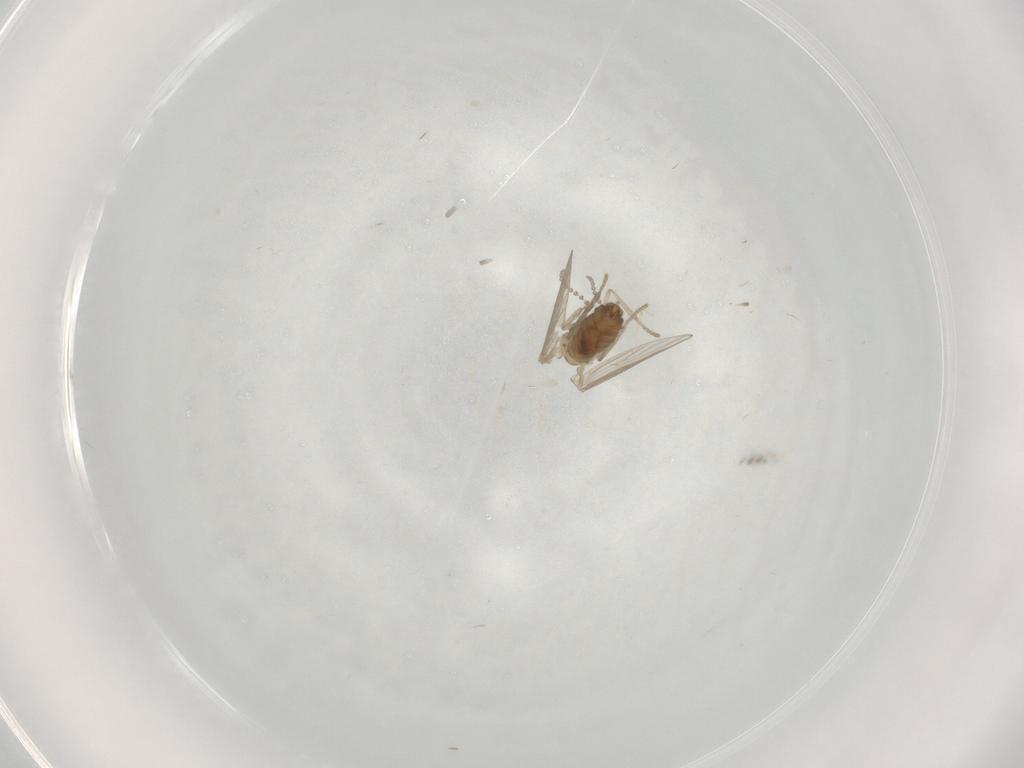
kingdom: Animalia
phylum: Arthropoda
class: Insecta
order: Diptera
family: Psychodidae
